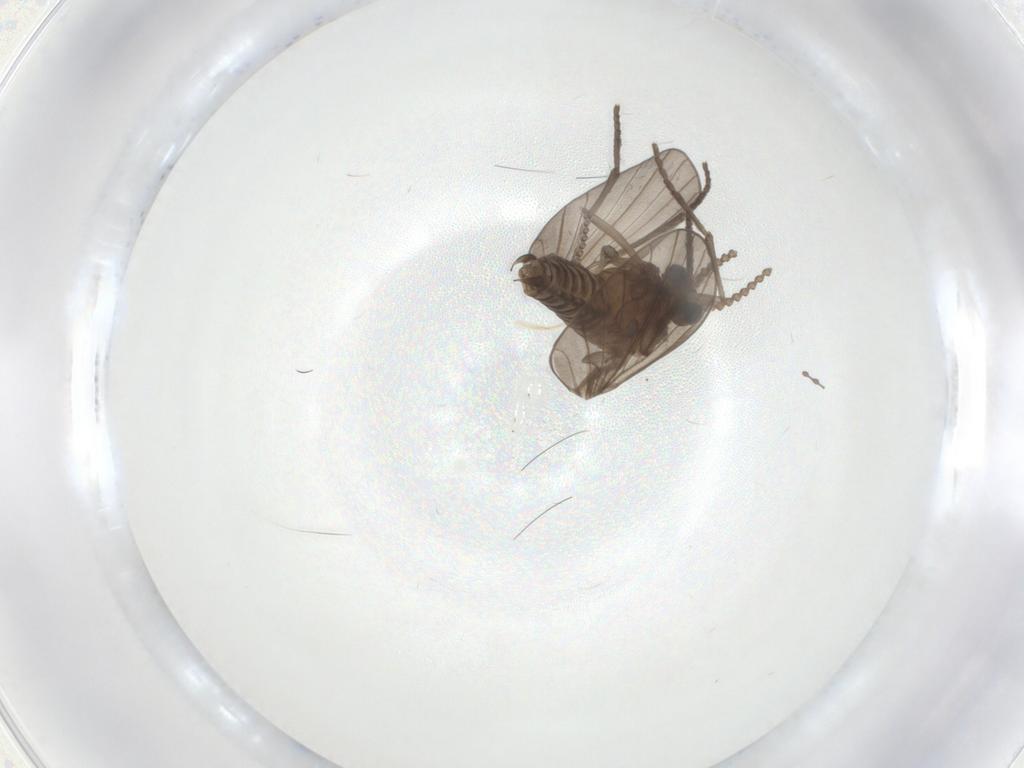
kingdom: Animalia
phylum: Arthropoda
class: Insecta
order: Diptera
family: Psychodidae
